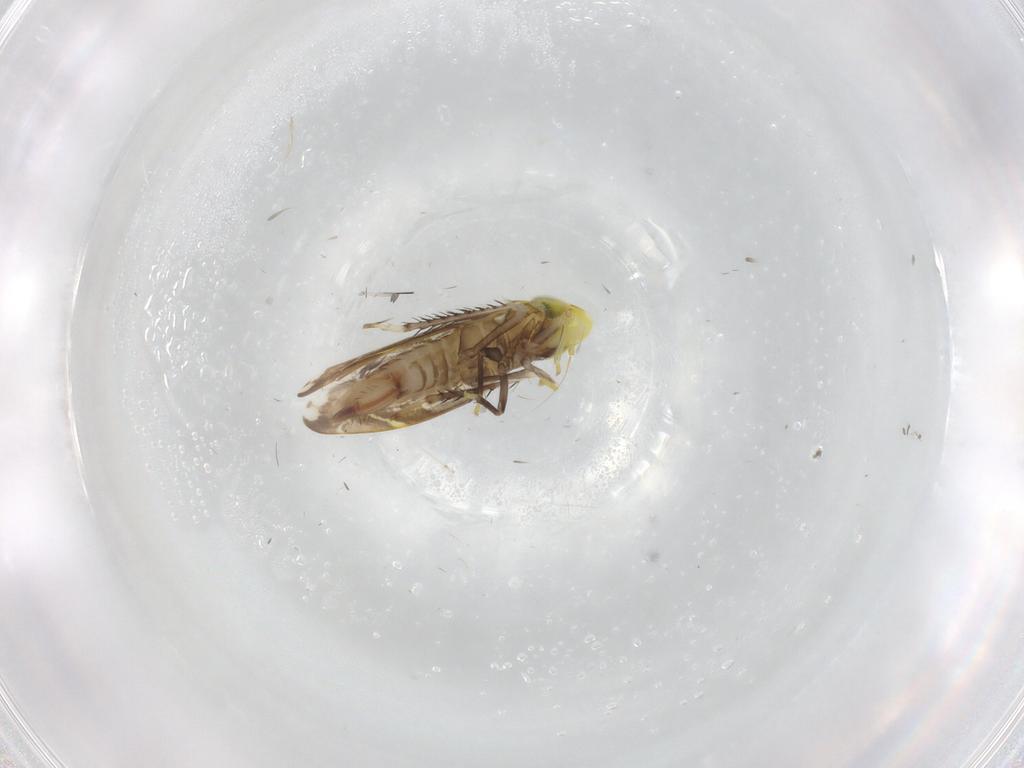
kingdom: Animalia
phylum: Arthropoda
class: Insecta
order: Hemiptera
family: Cicadellidae
